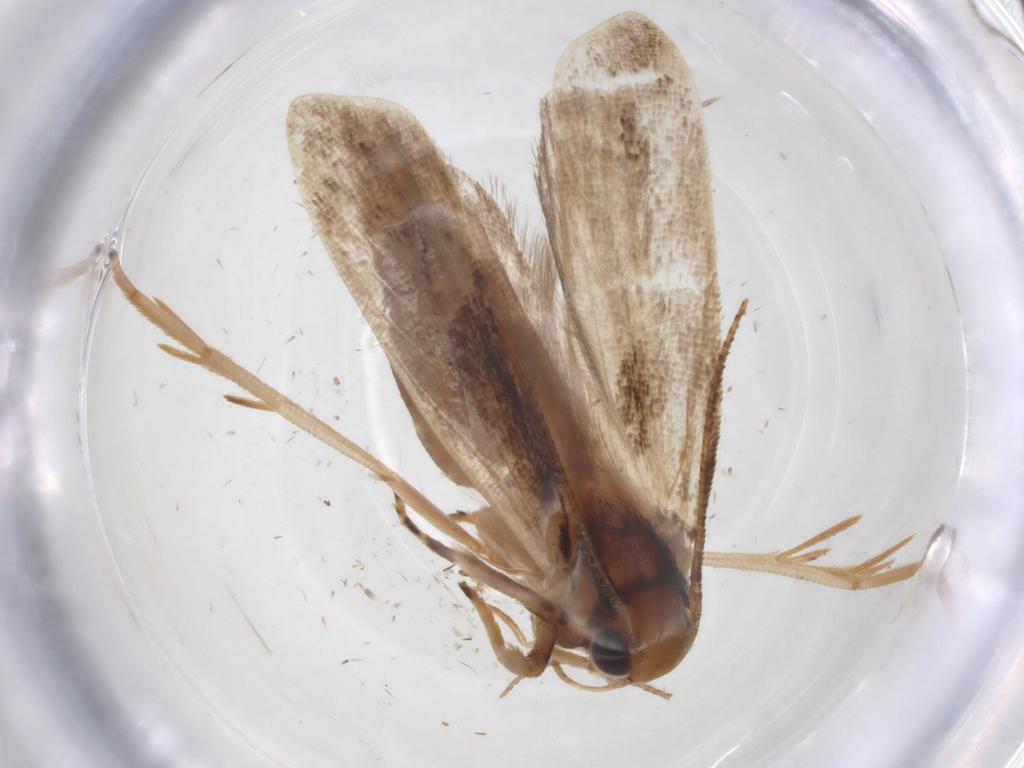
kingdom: Animalia
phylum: Arthropoda
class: Insecta
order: Lepidoptera
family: Gelechiidae
